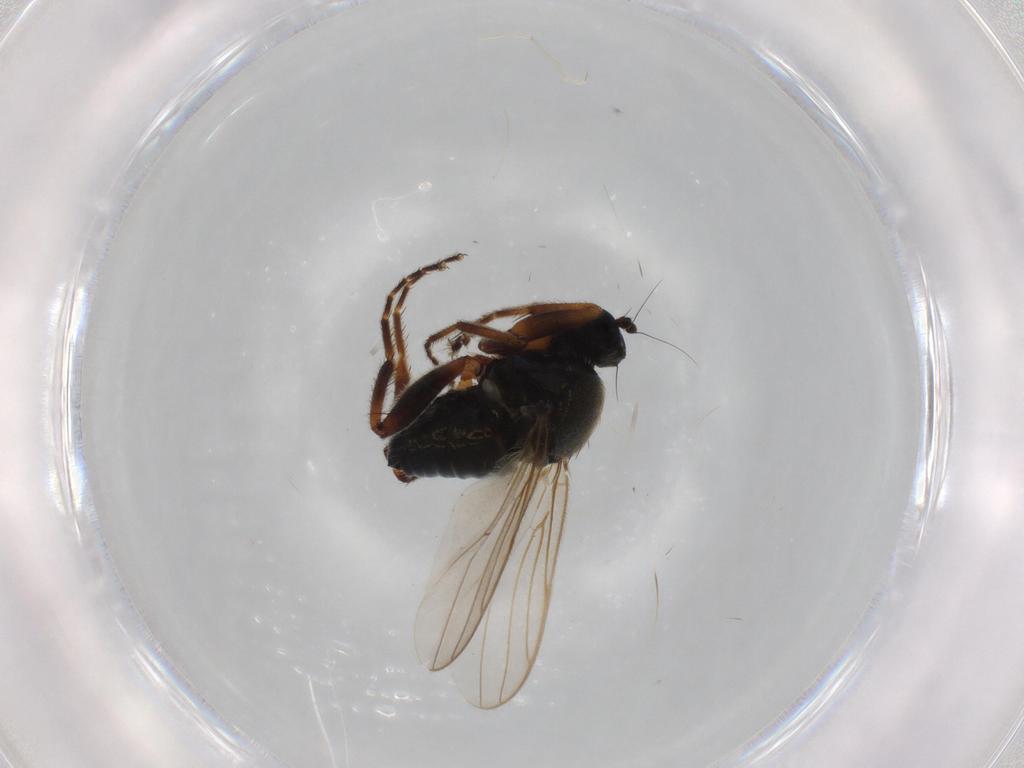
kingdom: Animalia
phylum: Arthropoda
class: Insecta
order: Diptera
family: Hybotidae
